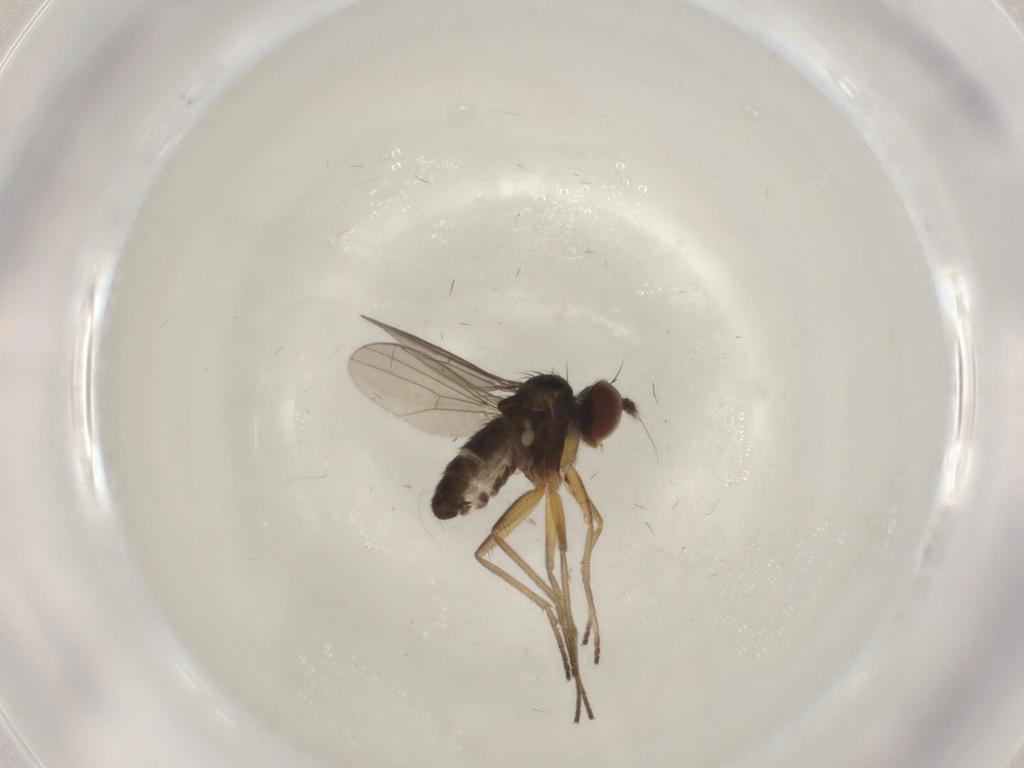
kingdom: Animalia
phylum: Arthropoda
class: Insecta
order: Diptera
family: Dolichopodidae
